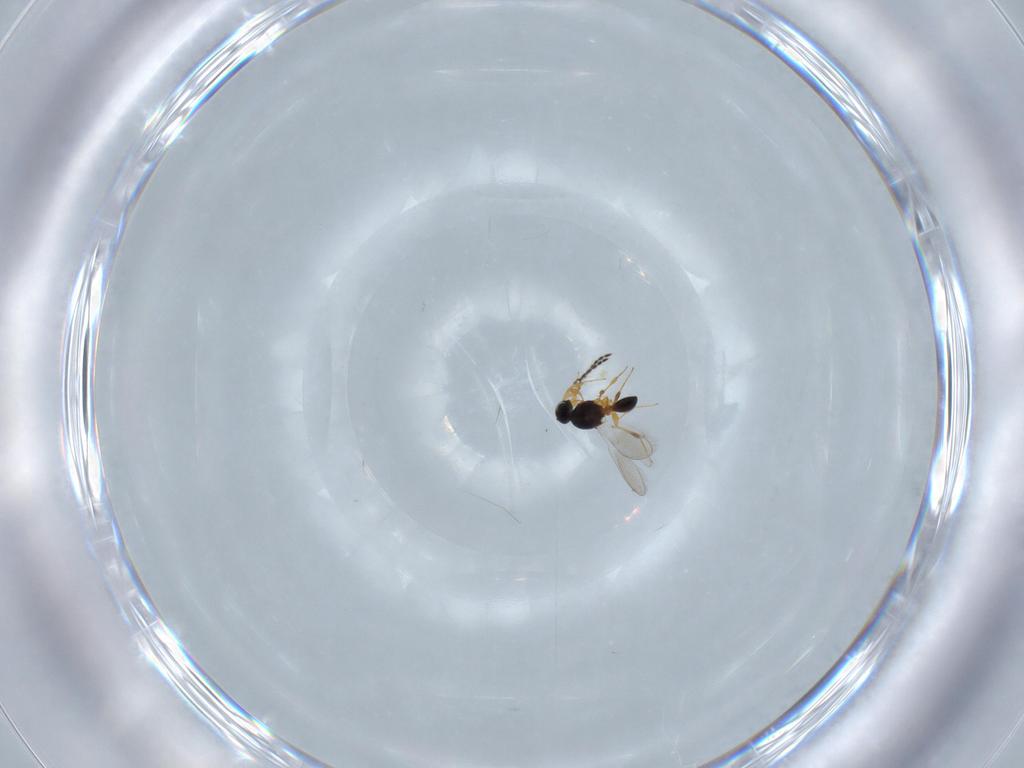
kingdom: Animalia
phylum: Arthropoda
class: Insecta
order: Hymenoptera
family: Platygastridae
